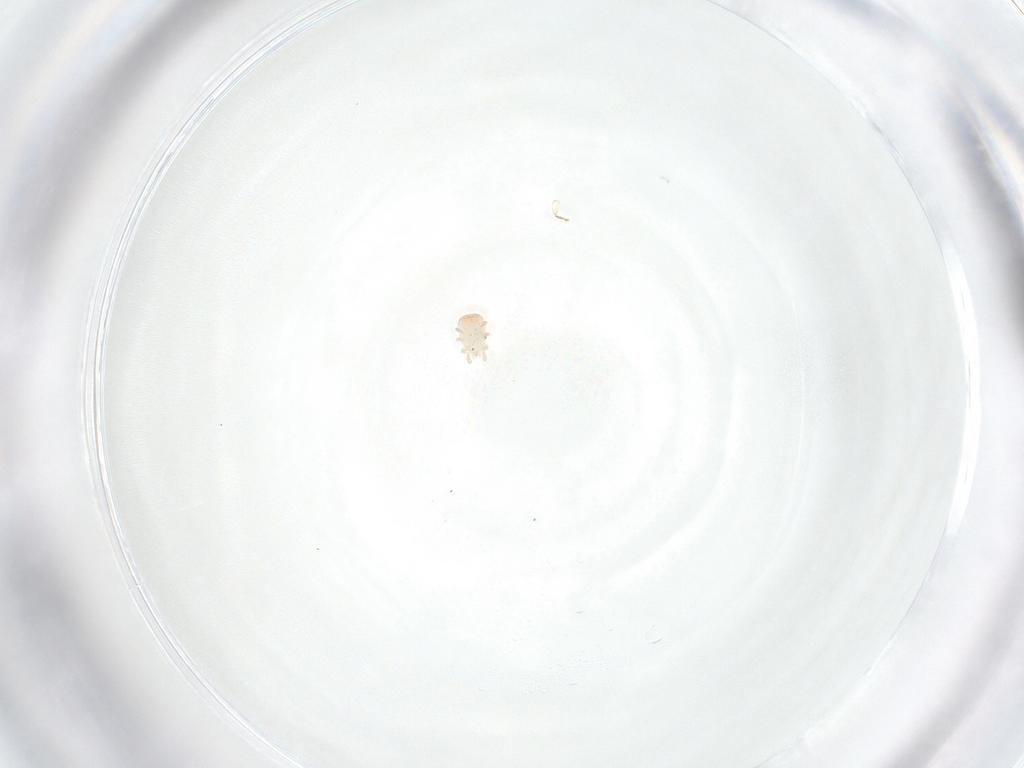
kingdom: Animalia
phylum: Arthropoda
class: Arachnida
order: Mesostigmata
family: Zerconidae
